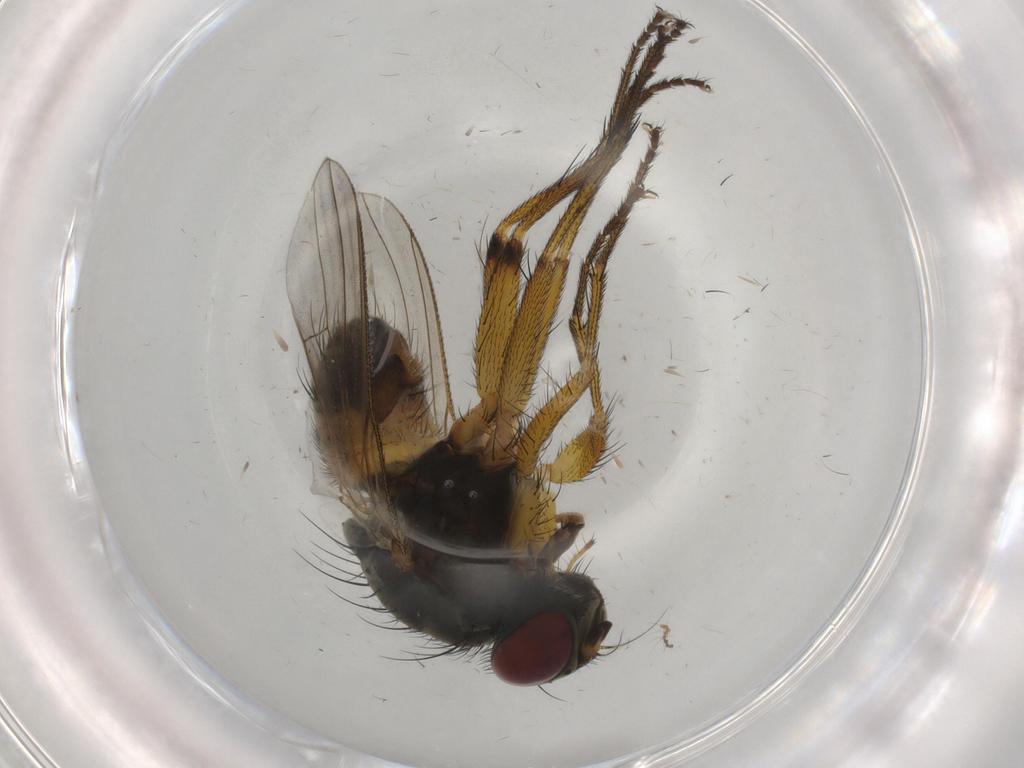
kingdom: Animalia
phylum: Arthropoda
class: Insecta
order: Diptera
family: Muscidae
